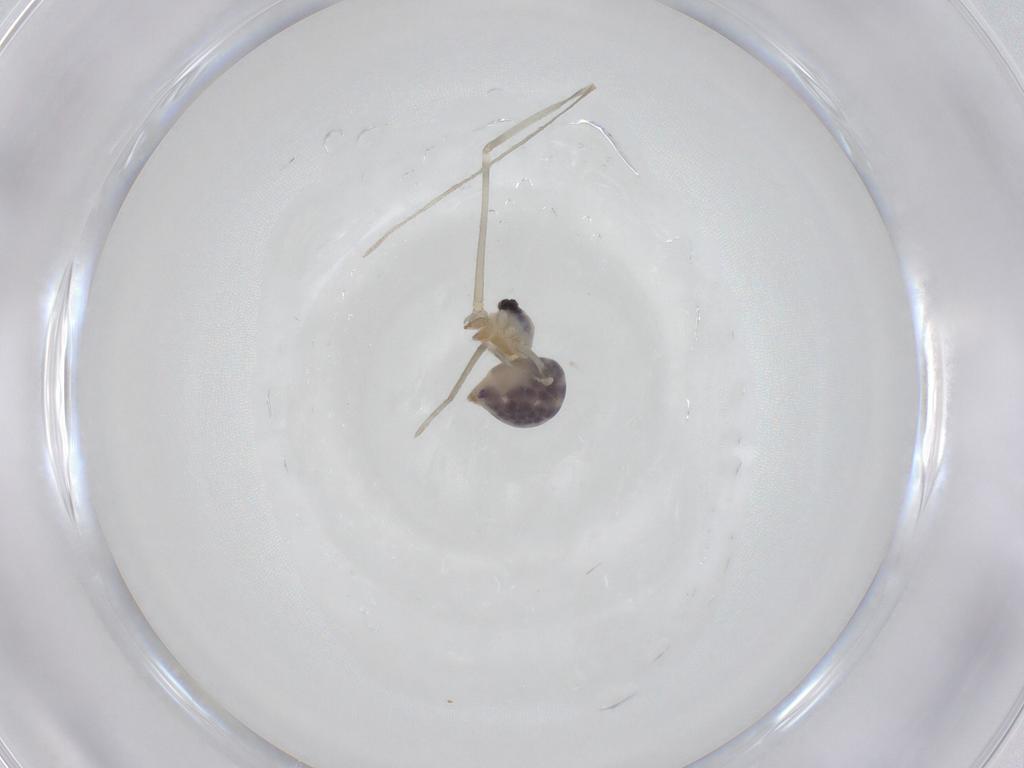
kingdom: Animalia
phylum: Arthropoda
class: Arachnida
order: Araneae
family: Pholcidae
